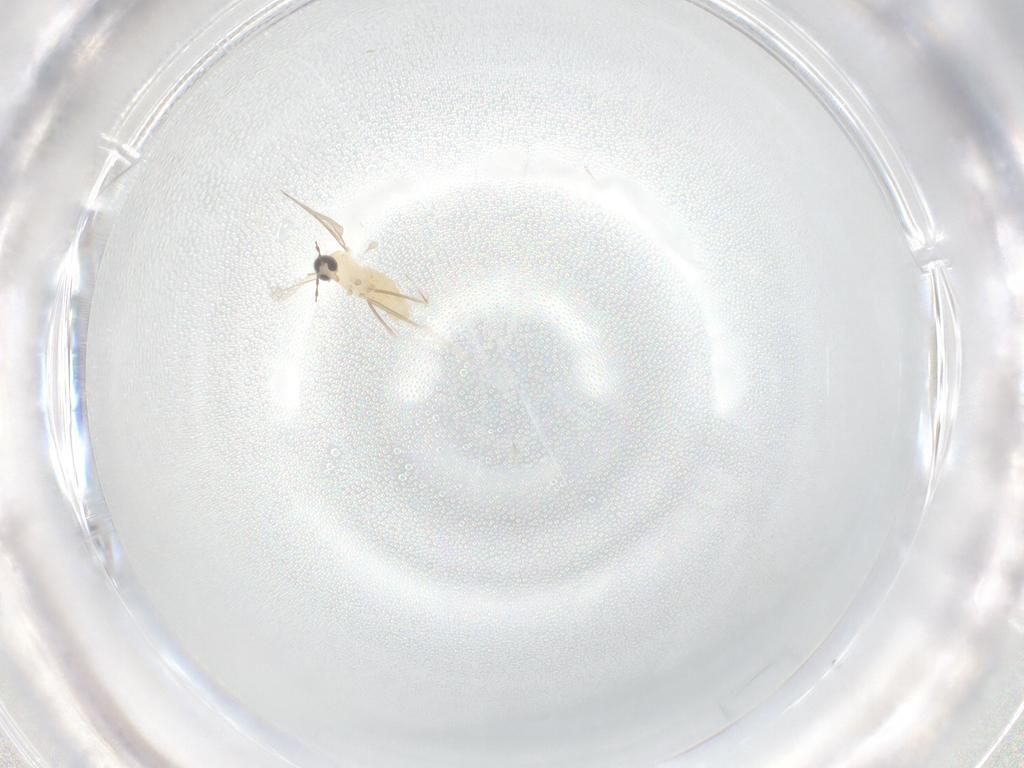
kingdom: Animalia
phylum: Arthropoda
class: Insecta
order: Diptera
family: Cecidomyiidae
